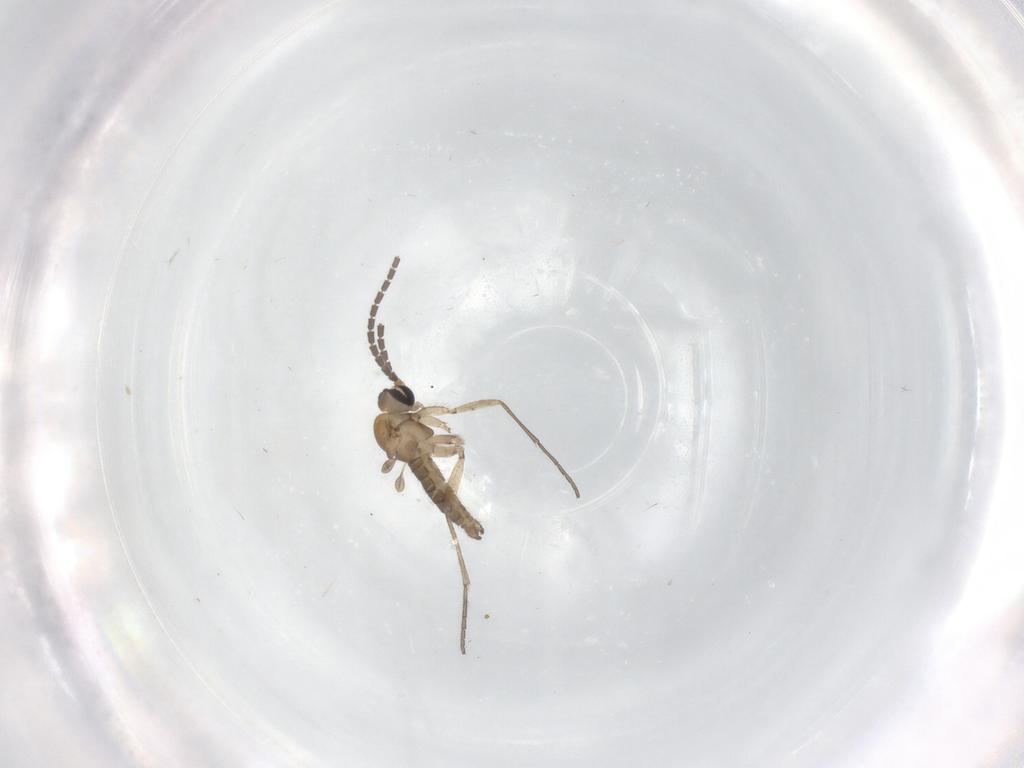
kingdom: Animalia
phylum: Arthropoda
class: Insecta
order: Diptera
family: Sciaridae
